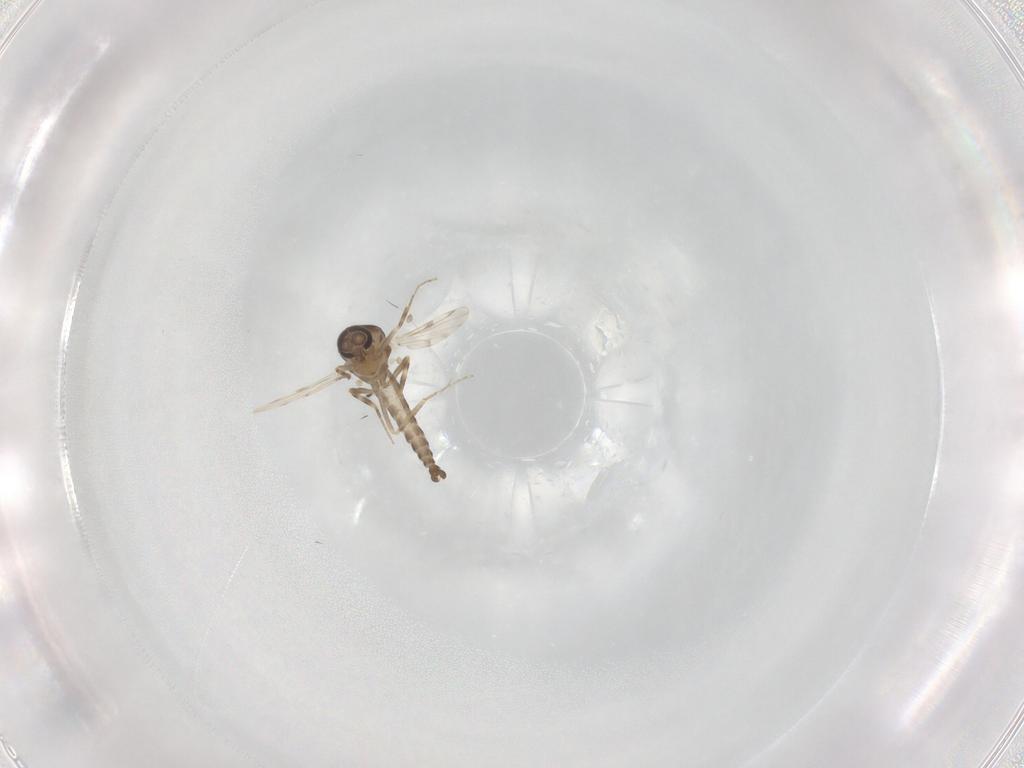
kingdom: Animalia
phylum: Arthropoda
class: Insecta
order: Diptera
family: Ceratopogonidae
